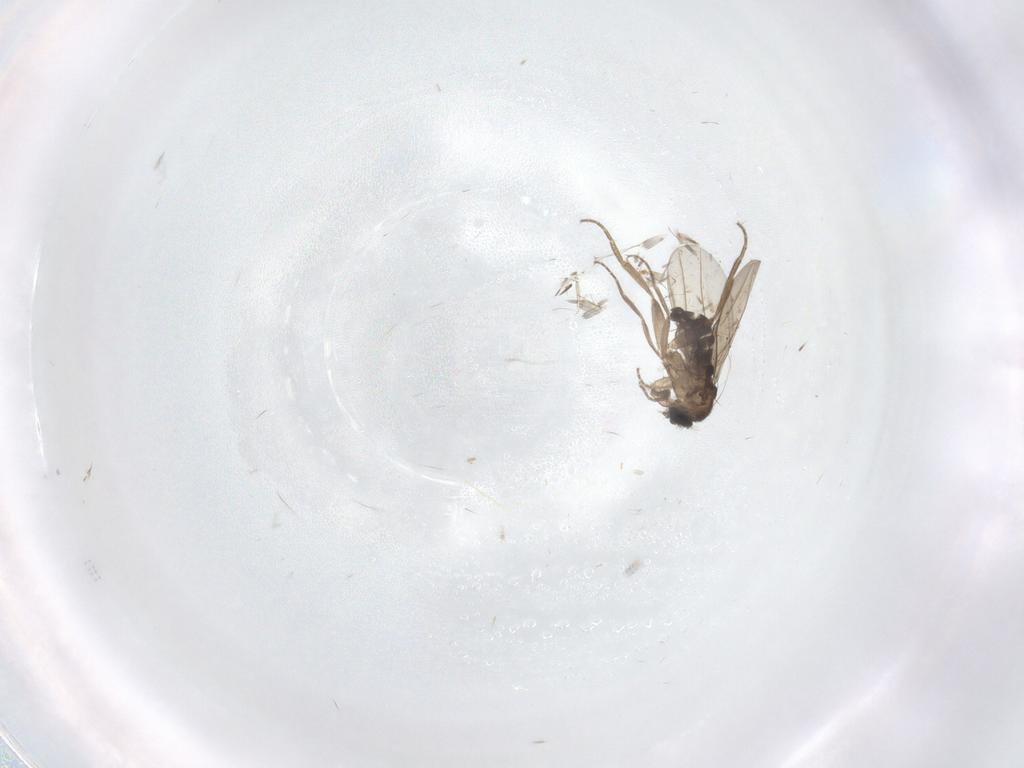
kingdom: Animalia
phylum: Arthropoda
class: Insecta
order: Diptera
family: Phoridae
